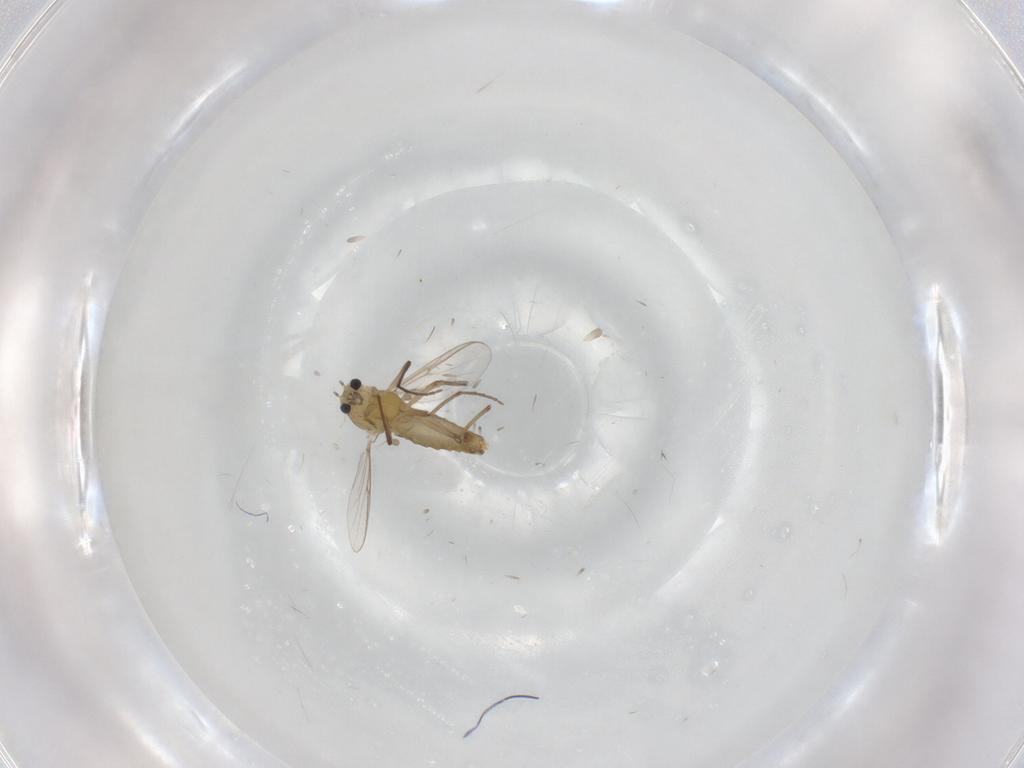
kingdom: Animalia
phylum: Arthropoda
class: Insecta
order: Diptera
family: Chironomidae
